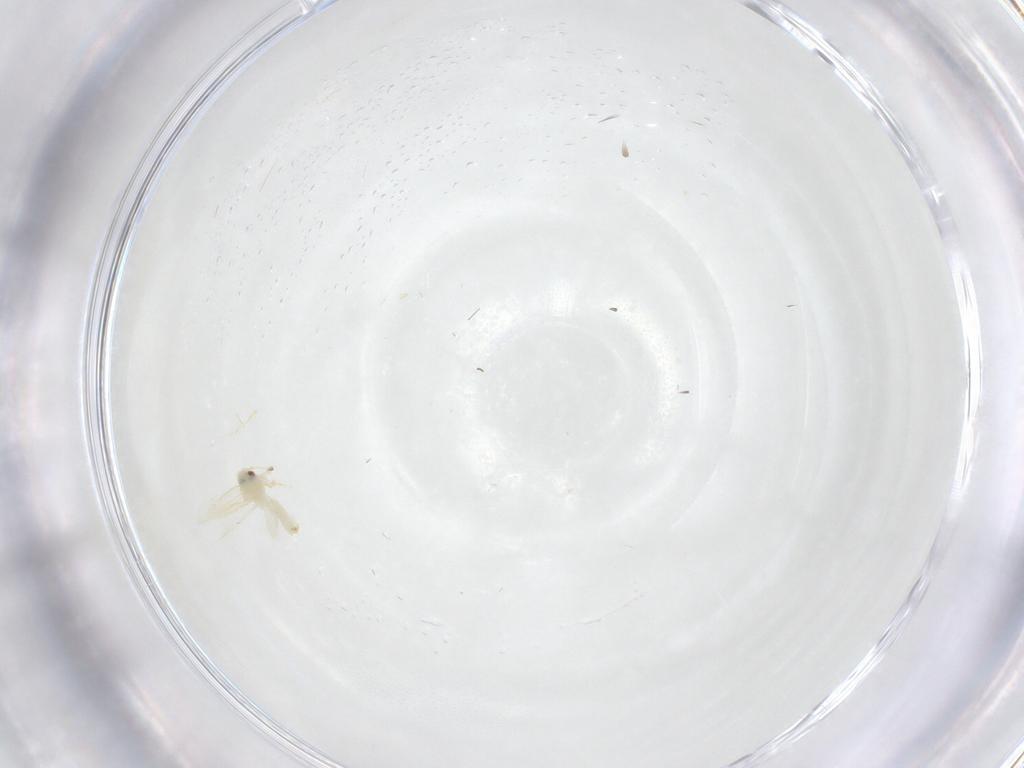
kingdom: Animalia
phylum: Arthropoda
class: Insecta
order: Hemiptera
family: Aleyrodidae
